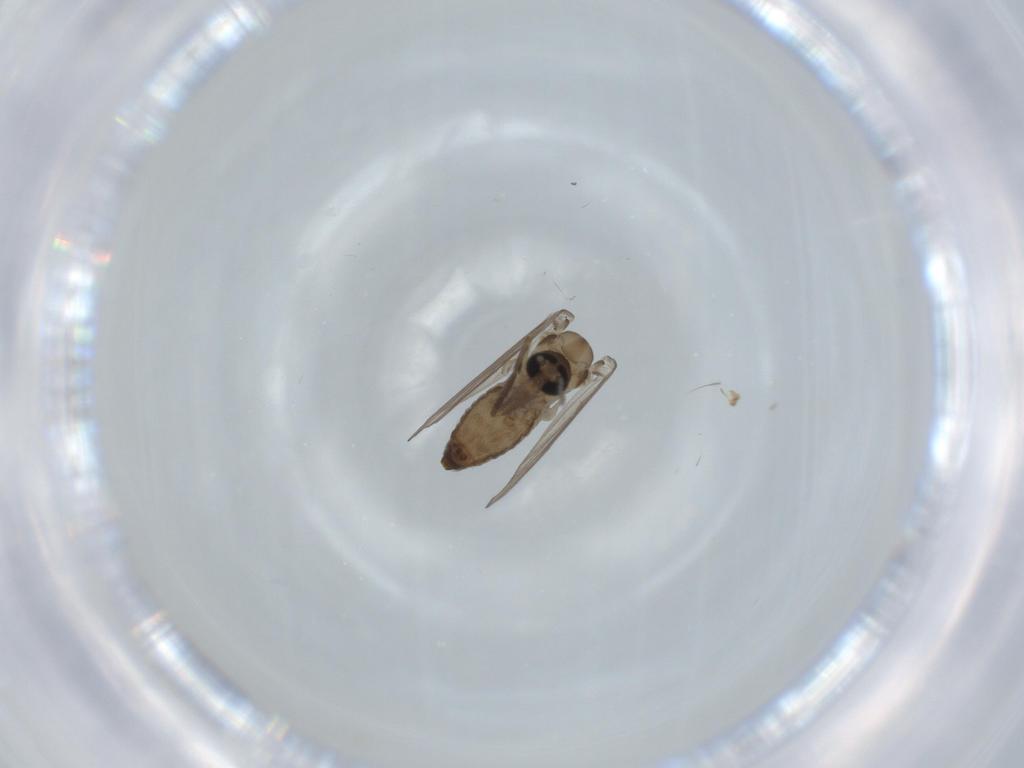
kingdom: Animalia
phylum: Arthropoda
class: Insecta
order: Diptera
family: Psychodidae
